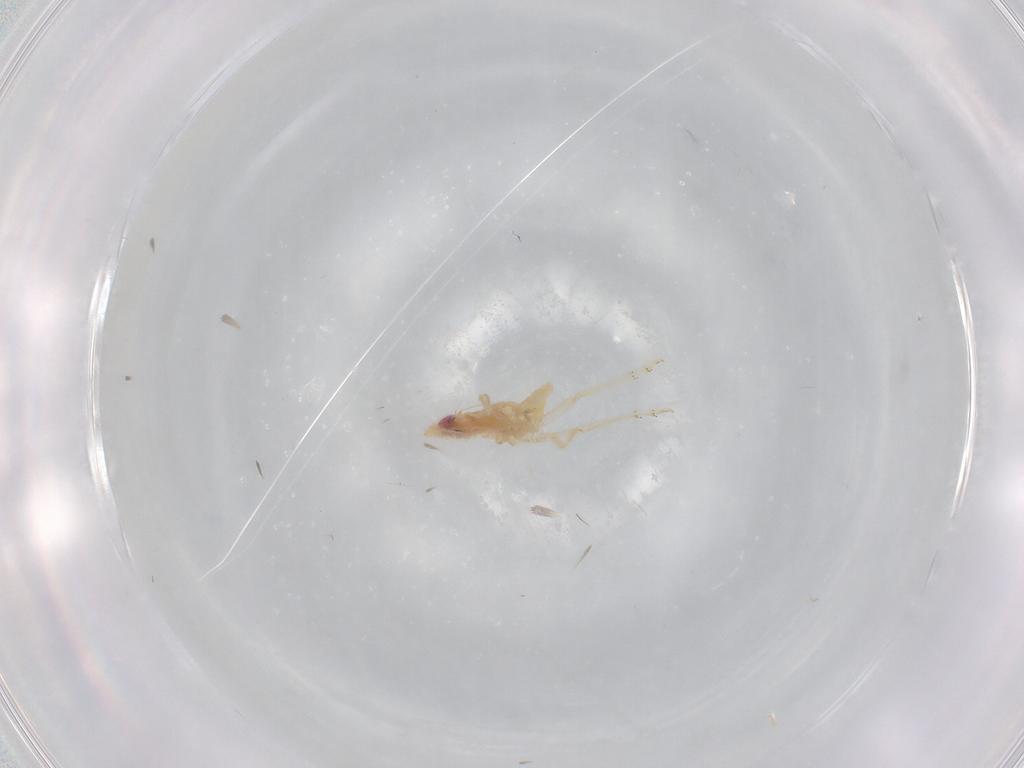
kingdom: Animalia
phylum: Arthropoda
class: Insecta
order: Hemiptera
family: Tropiduchidae
